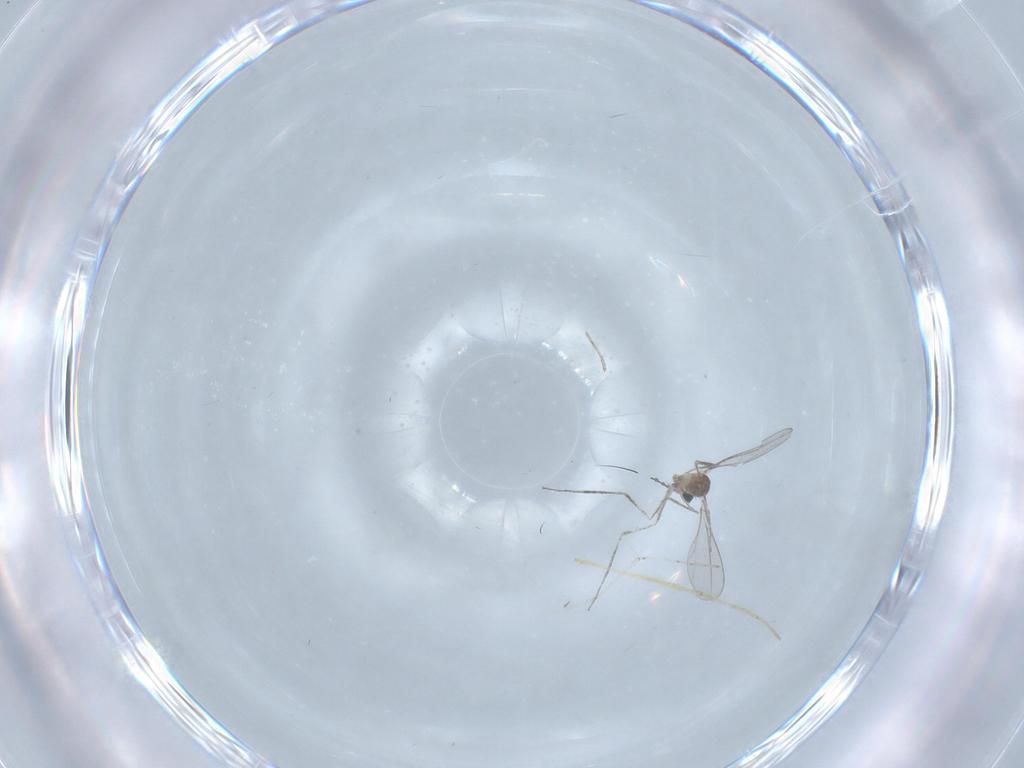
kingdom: Animalia
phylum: Arthropoda
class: Insecta
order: Diptera
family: Cecidomyiidae
